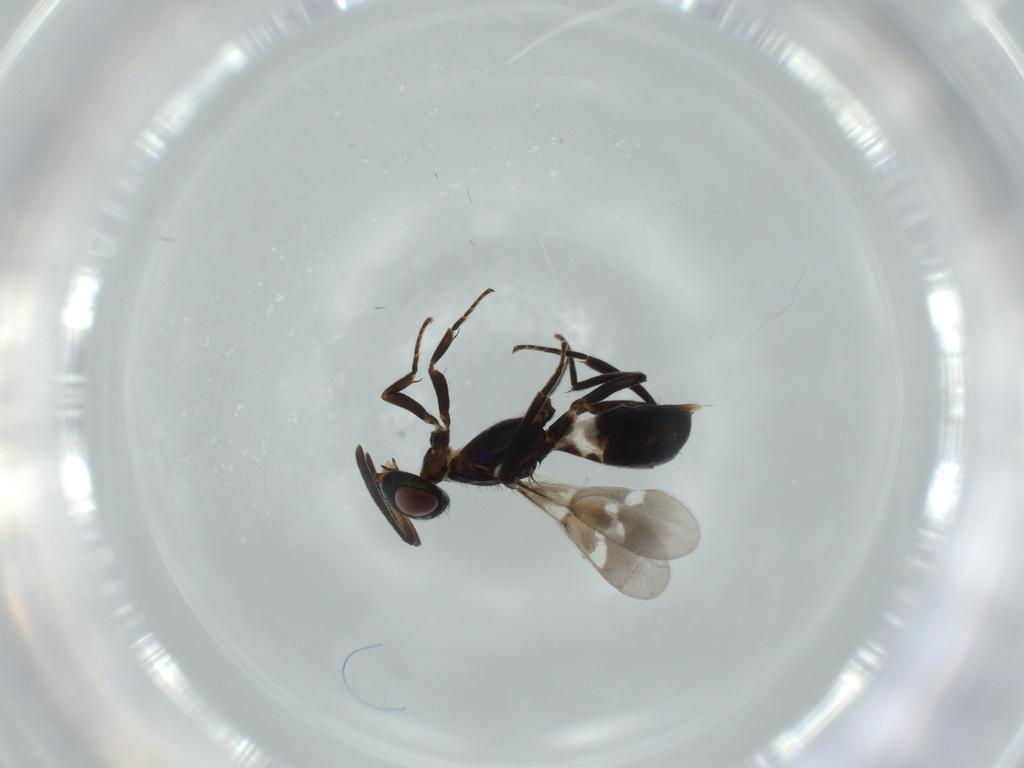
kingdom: Animalia
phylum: Arthropoda
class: Insecta
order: Hymenoptera
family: Eupelmidae
